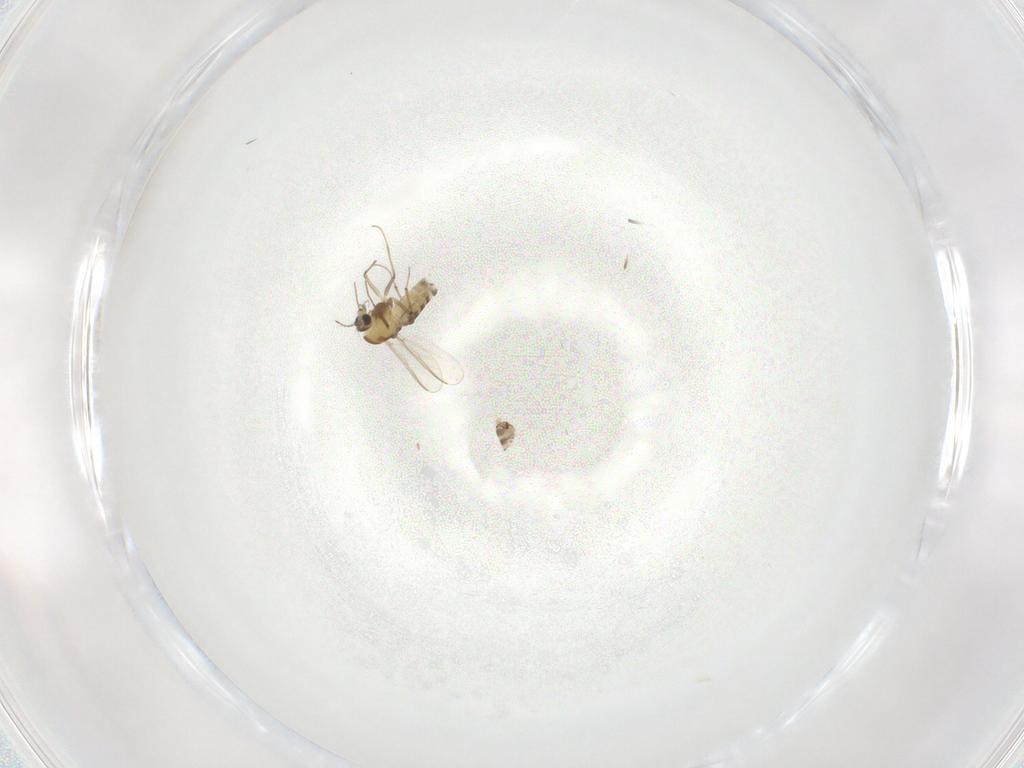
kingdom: Animalia
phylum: Arthropoda
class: Insecta
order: Diptera
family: Chironomidae
